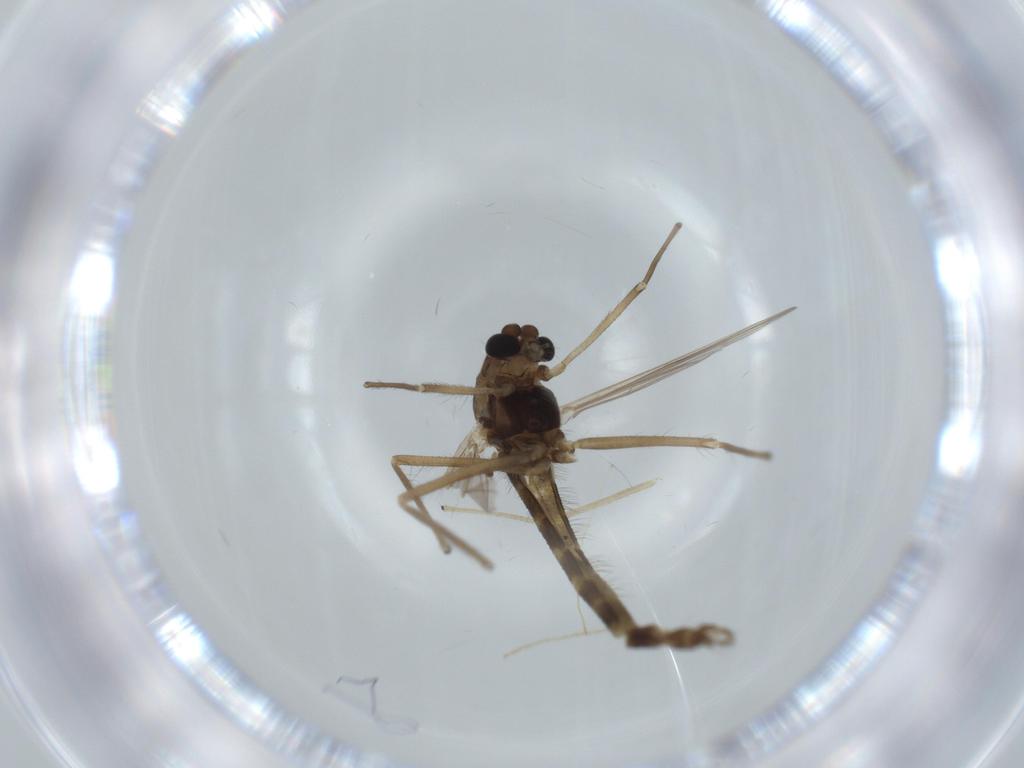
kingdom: Animalia
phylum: Arthropoda
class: Insecta
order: Diptera
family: Chironomidae
